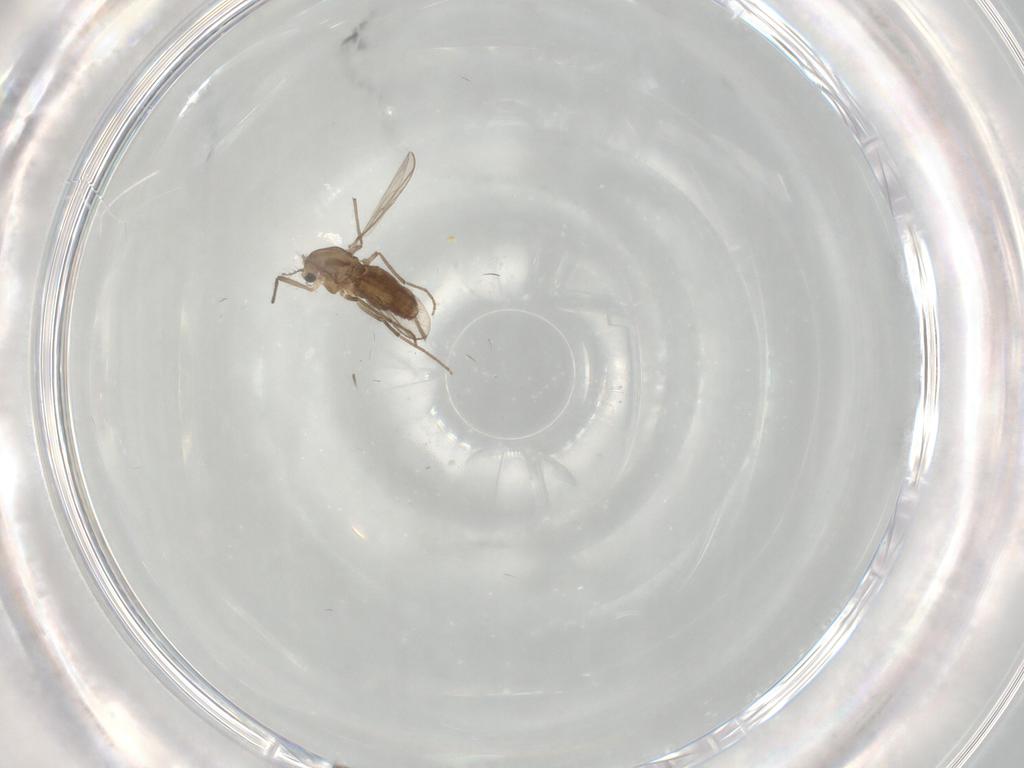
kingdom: Animalia
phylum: Arthropoda
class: Insecta
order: Diptera
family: Chironomidae
